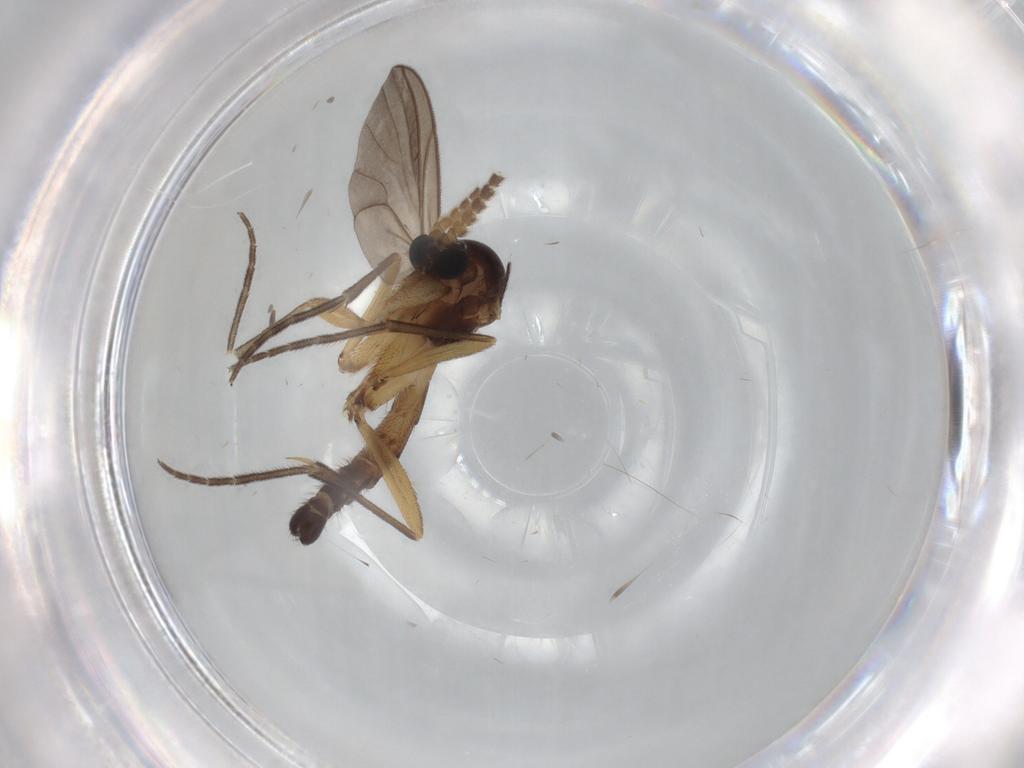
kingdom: Animalia
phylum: Arthropoda
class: Insecta
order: Diptera
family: Mycetophilidae
